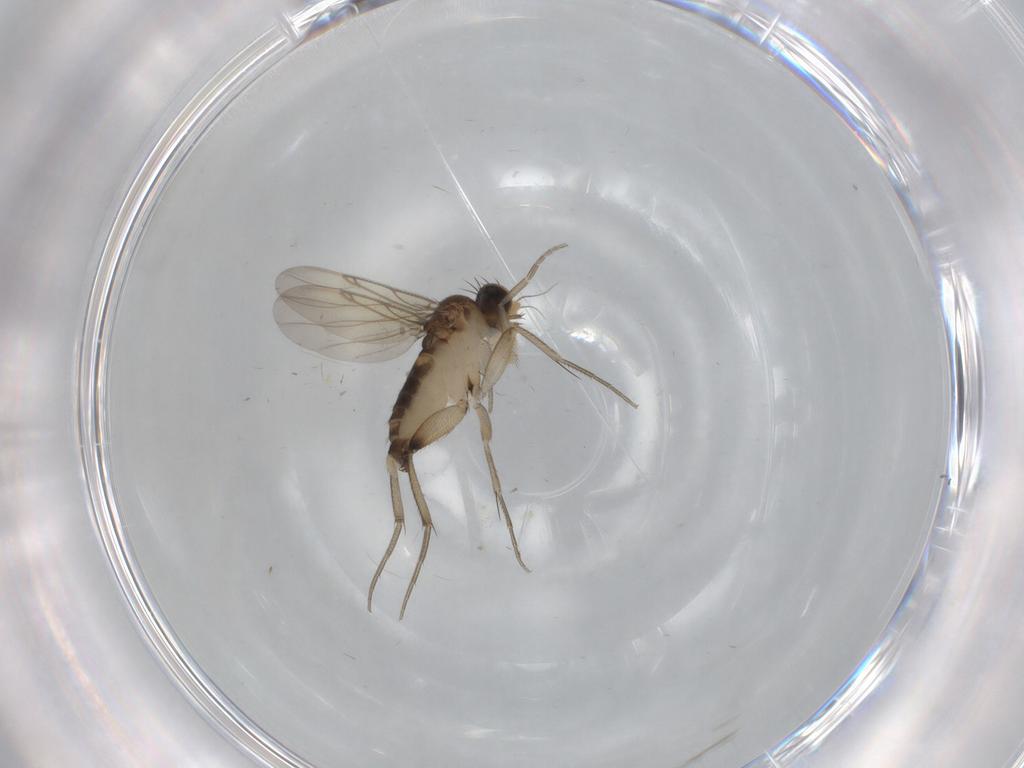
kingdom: Animalia
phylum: Arthropoda
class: Insecta
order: Diptera
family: Phoridae
